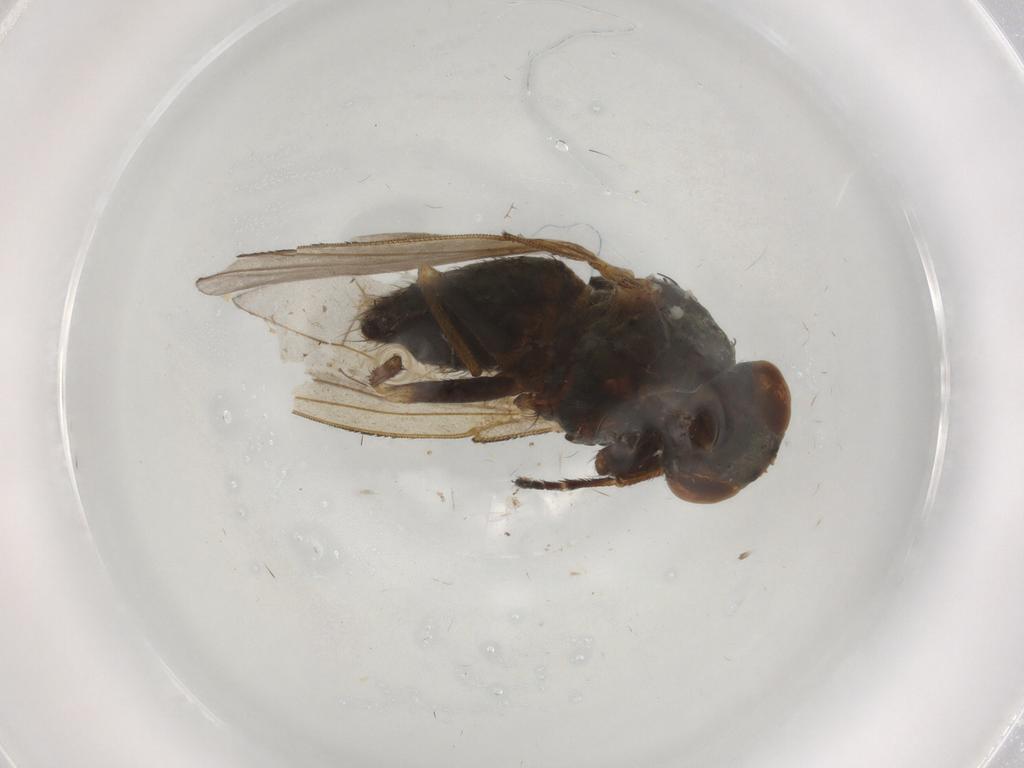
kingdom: Animalia
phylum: Arthropoda
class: Insecta
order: Diptera
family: Ephydridae
